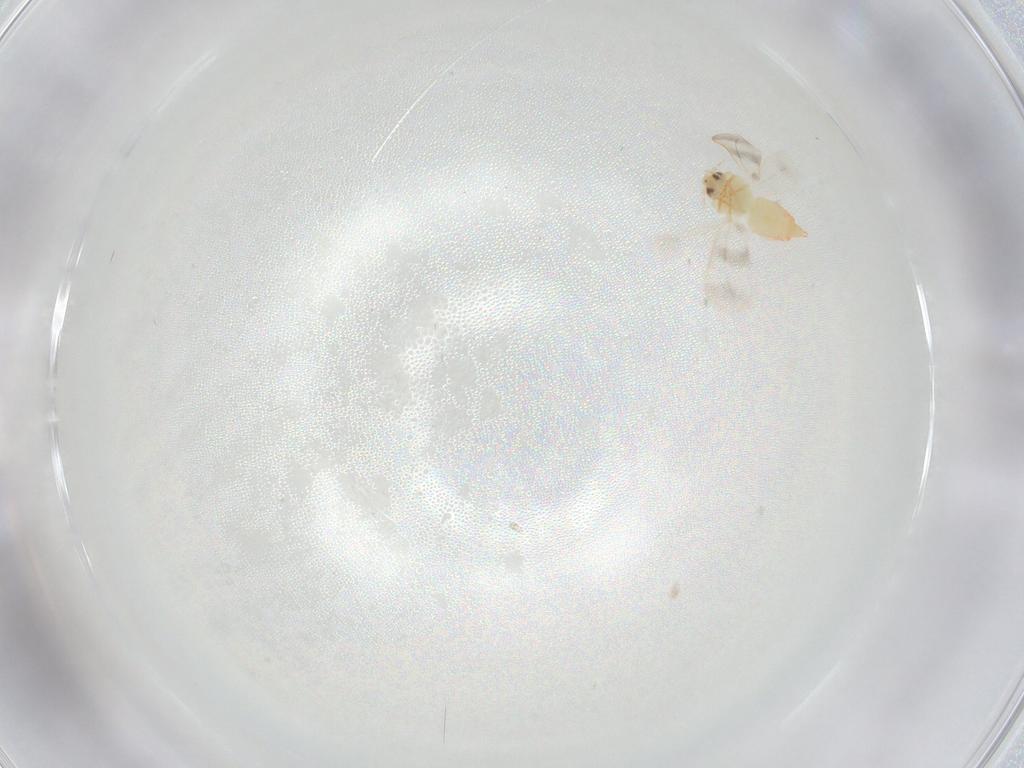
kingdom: Animalia
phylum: Arthropoda
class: Insecta
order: Hemiptera
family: Aleyrodidae
